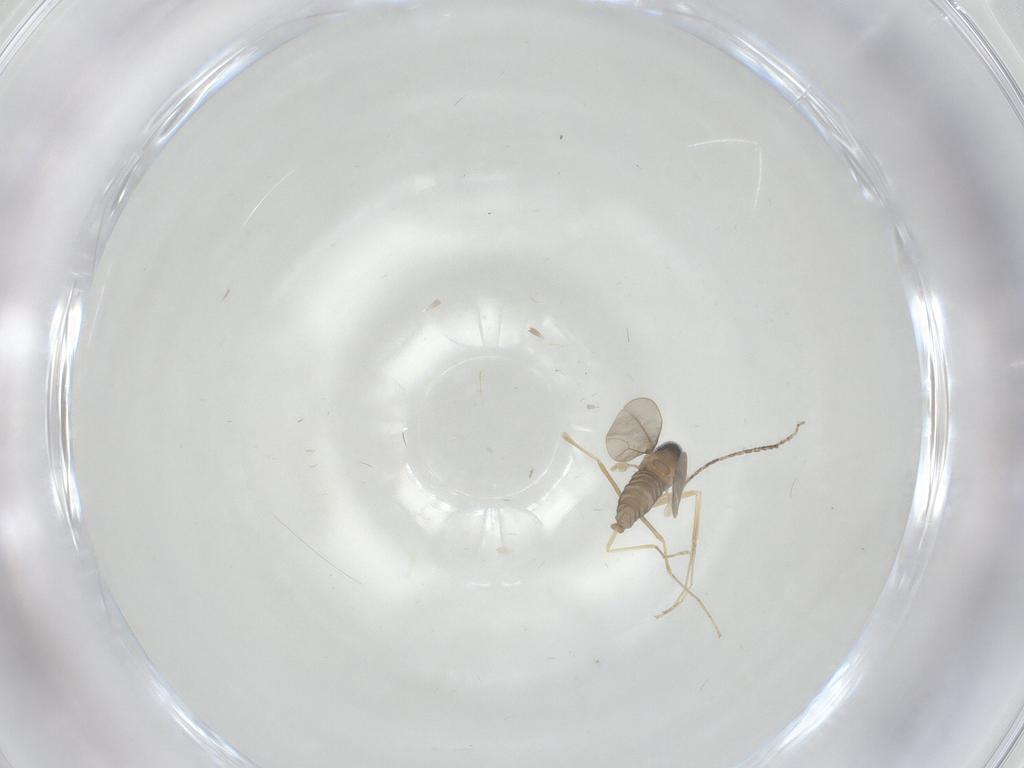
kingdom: Animalia
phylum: Arthropoda
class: Insecta
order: Diptera
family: Cecidomyiidae
